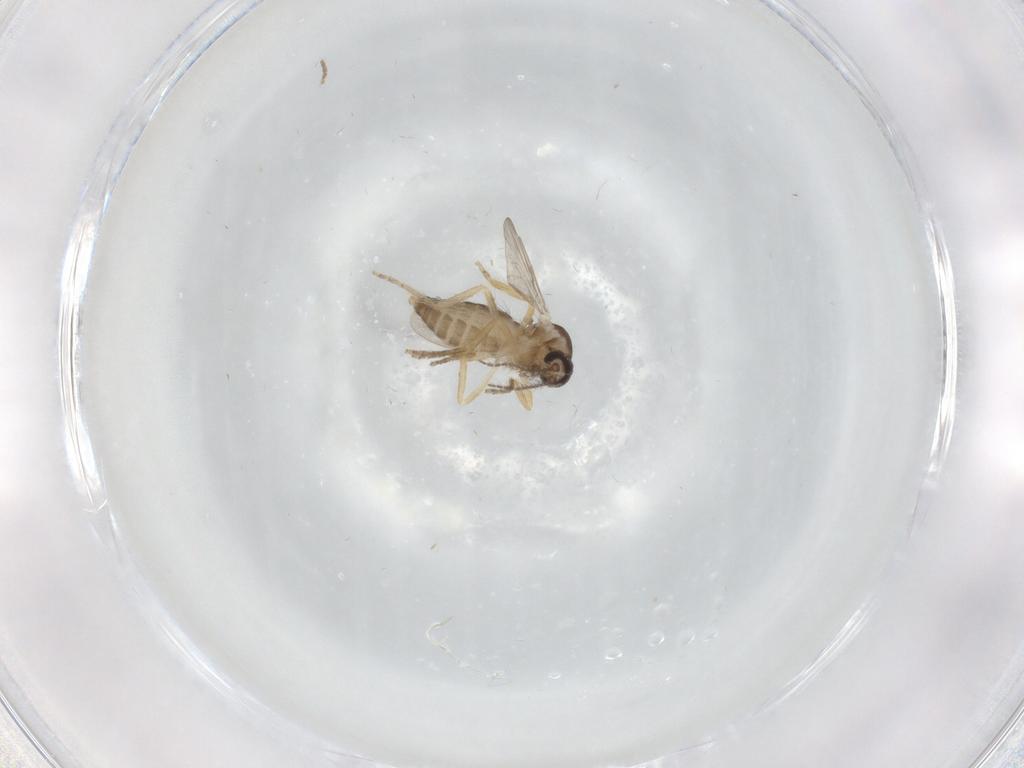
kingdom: Animalia
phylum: Arthropoda
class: Insecta
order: Diptera
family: Ceratopogonidae
